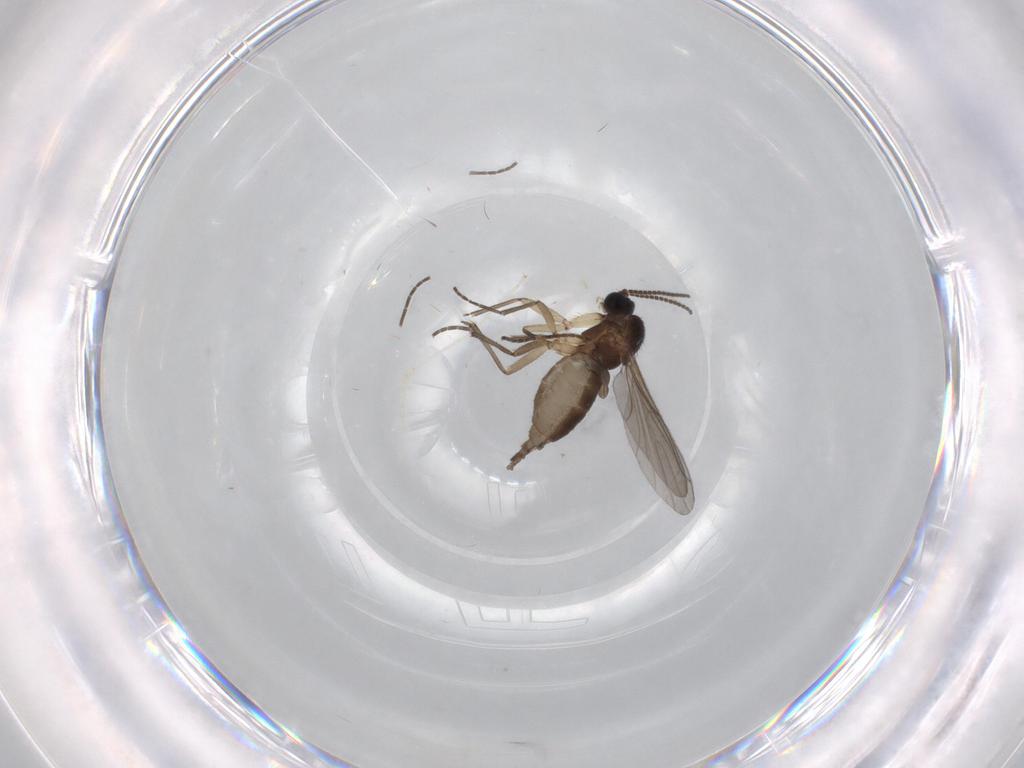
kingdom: Animalia
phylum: Arthropoda
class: Insecta
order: Diptera
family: Sciaridae
